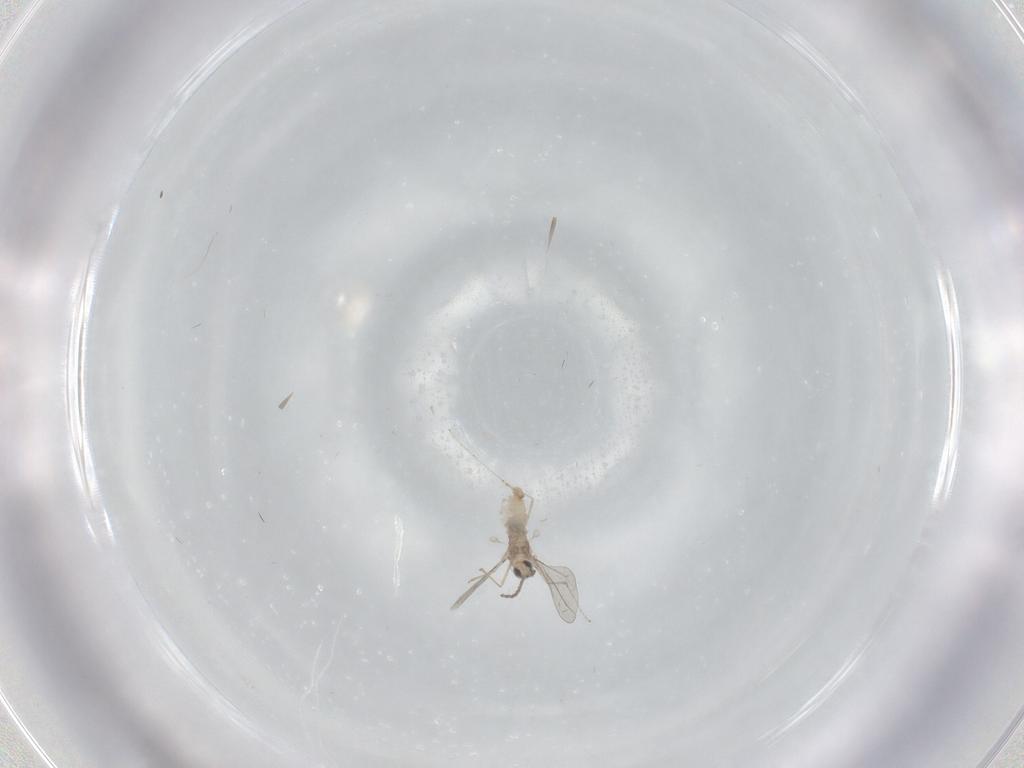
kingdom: Animalia
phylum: Arthropoda
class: Insecta
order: Diptera
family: Cecidomyiidae
